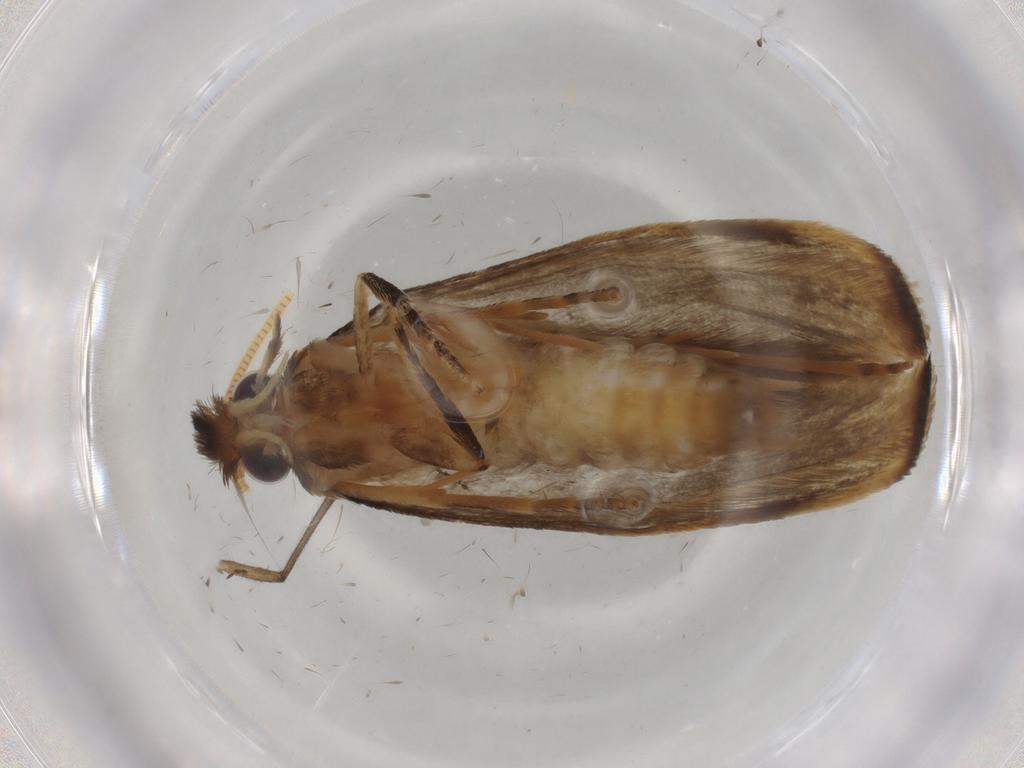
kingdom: Animalia
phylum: Arthropoda
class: Insecta
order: Lepidoptera
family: Tineidae
